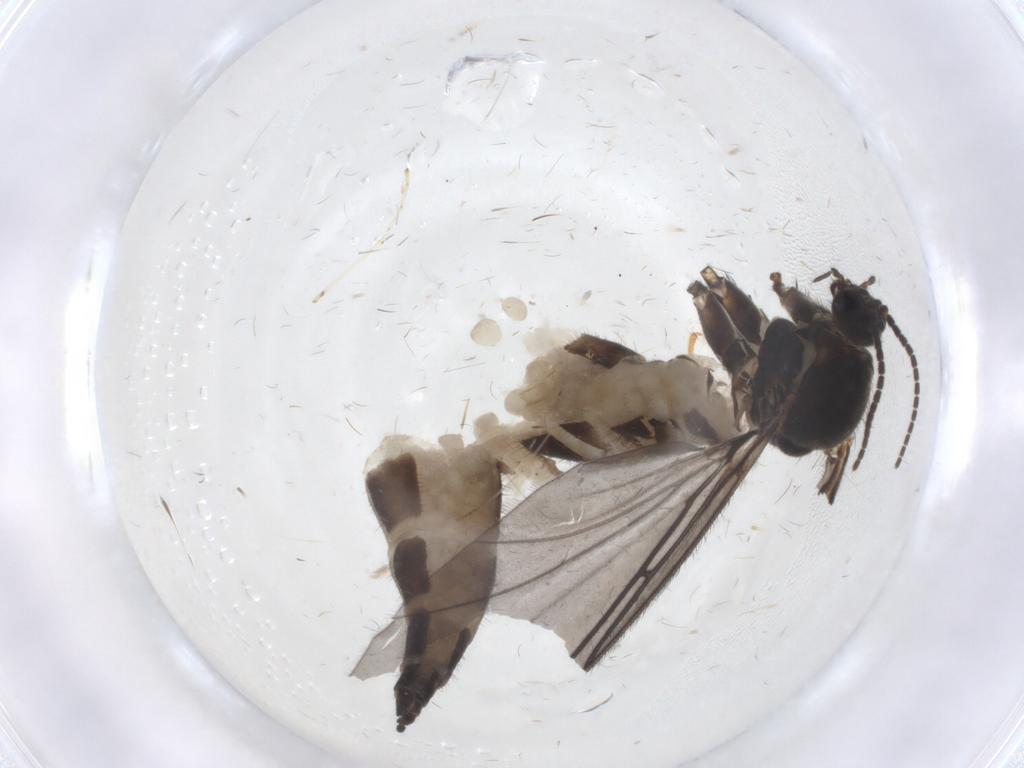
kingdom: Animalia
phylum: Arthropoda
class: Insecta
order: Diptera
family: Sciaridae
